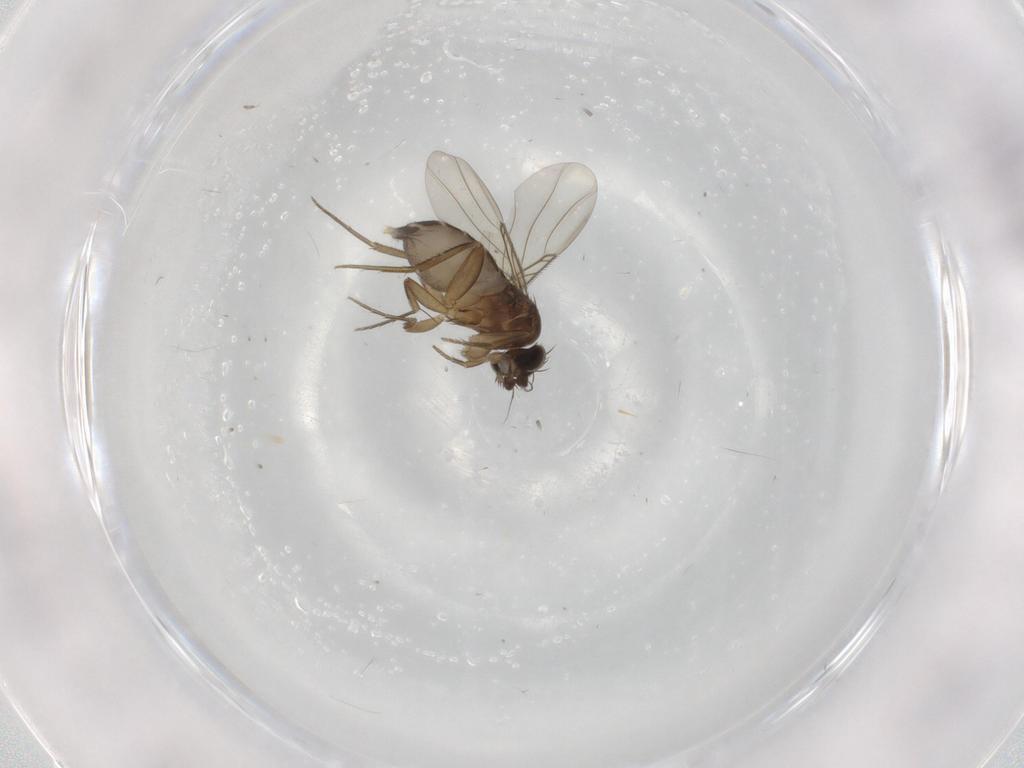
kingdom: Animalia
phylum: Arthropoda
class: Insecta
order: Diptera
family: Phoridae
